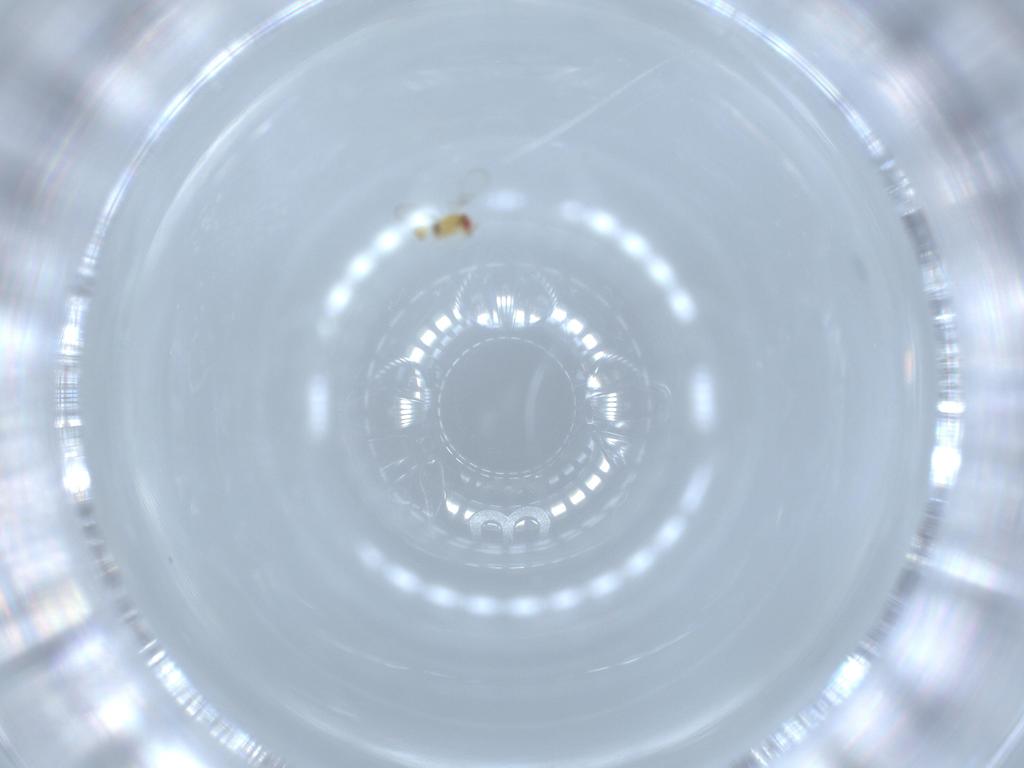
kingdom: Animalia
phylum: Arthropoda
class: Insecta
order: Hymenoptera
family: Trichogrammatidae
